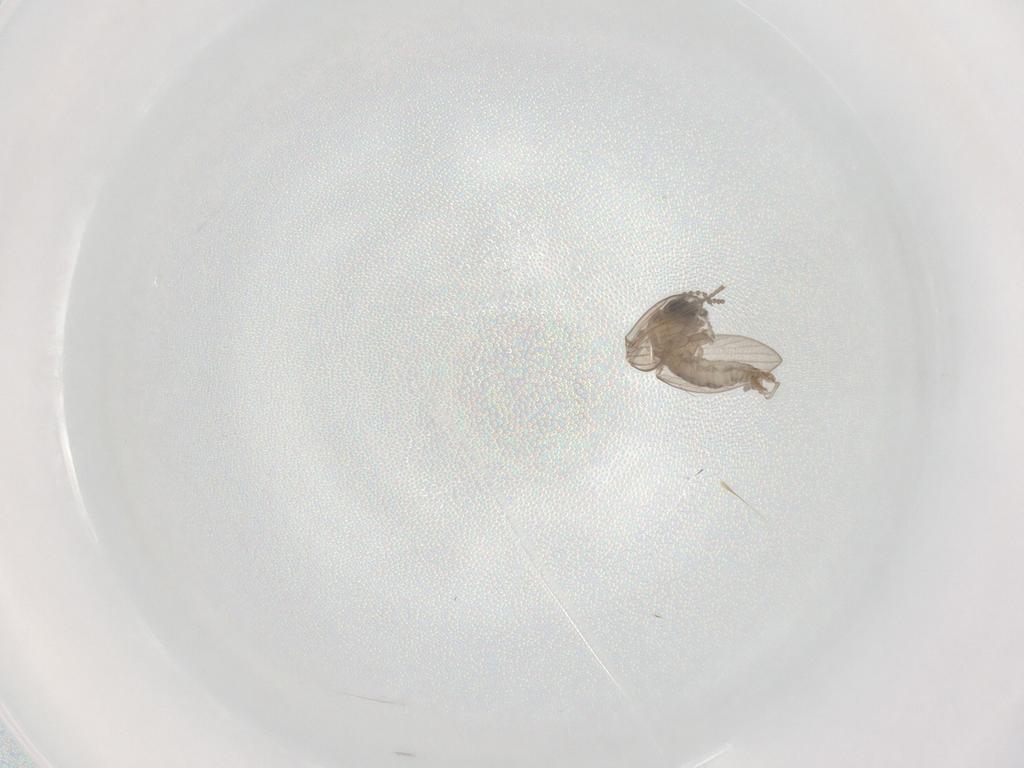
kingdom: Animalia
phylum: Arthropoda
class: Insecta
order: Diptera
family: Psychodidae
